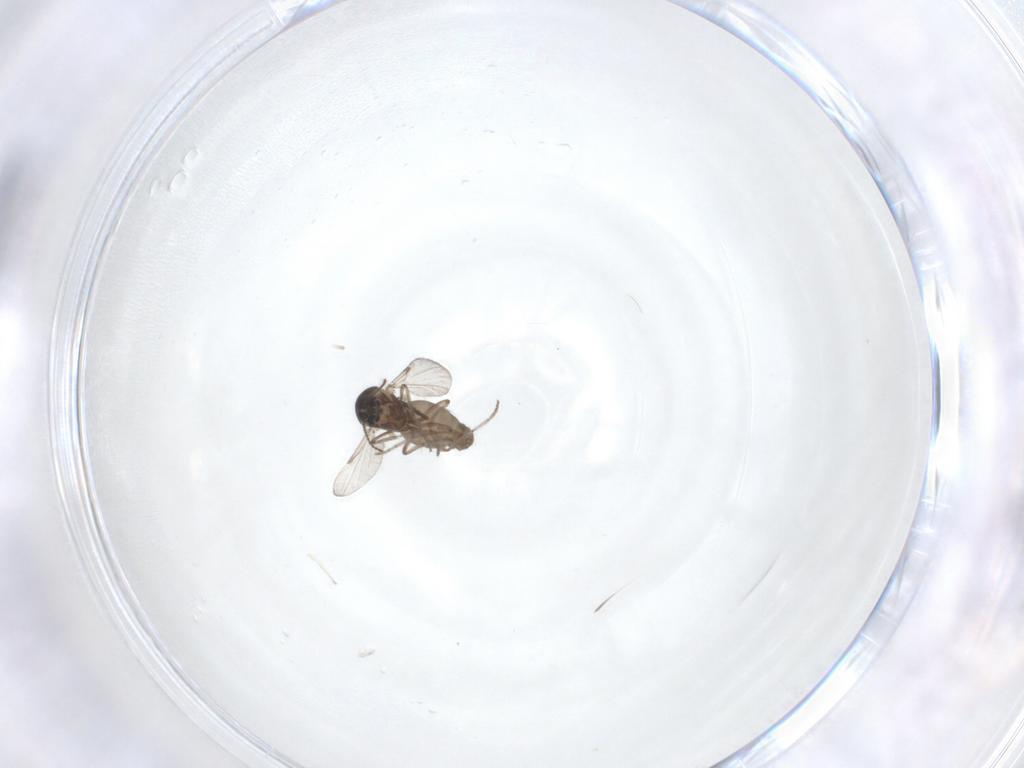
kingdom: Animalia
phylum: Arthropoda
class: Insecta
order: Diptera
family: Ceratopogonidae
